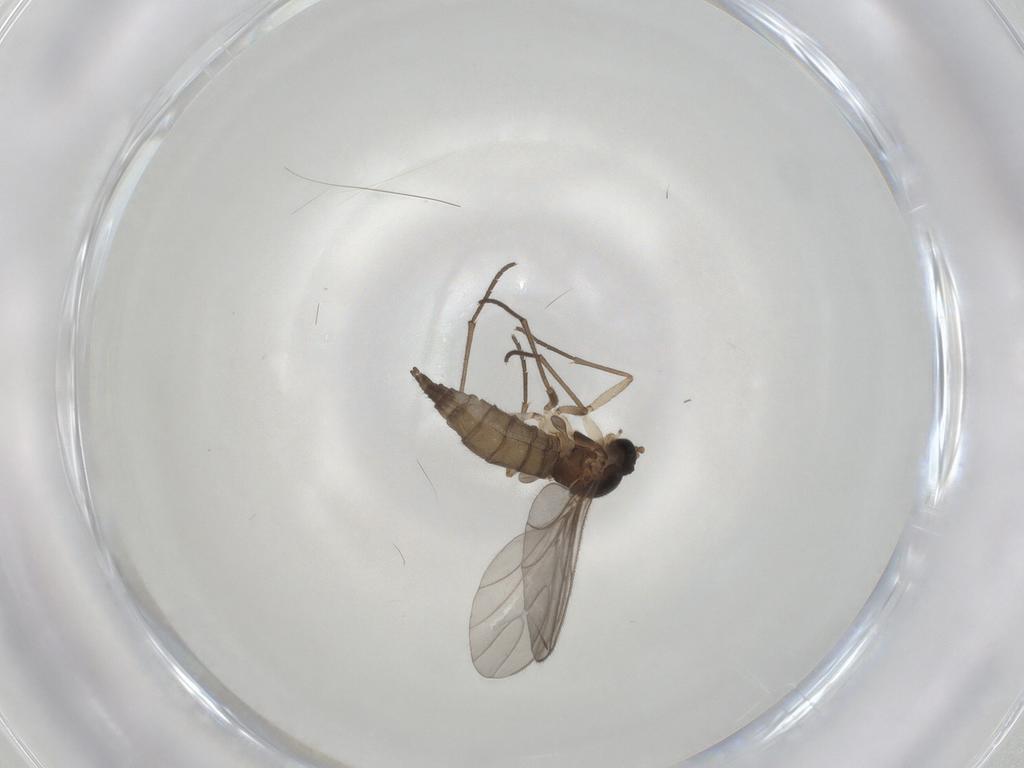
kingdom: Animalia
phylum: Arthropoda
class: Insecta
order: Diptera
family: Sciaridae
